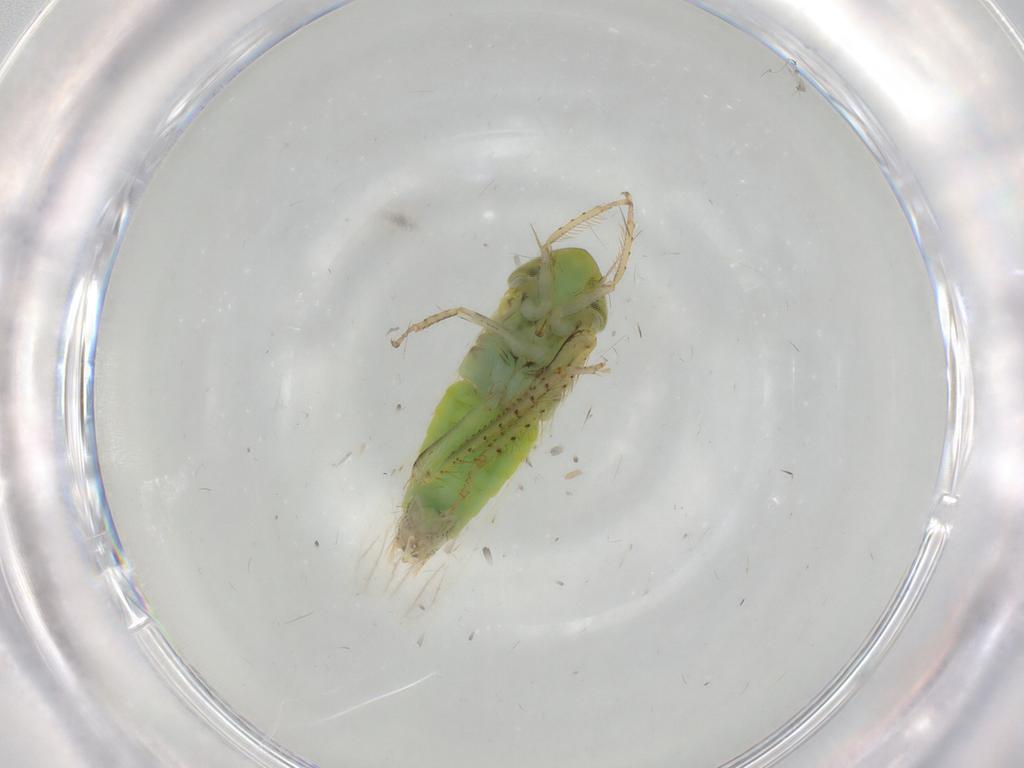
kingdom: Animalia
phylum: Arthropoda
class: Insecta
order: Hemiptera
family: Cicadellidae
